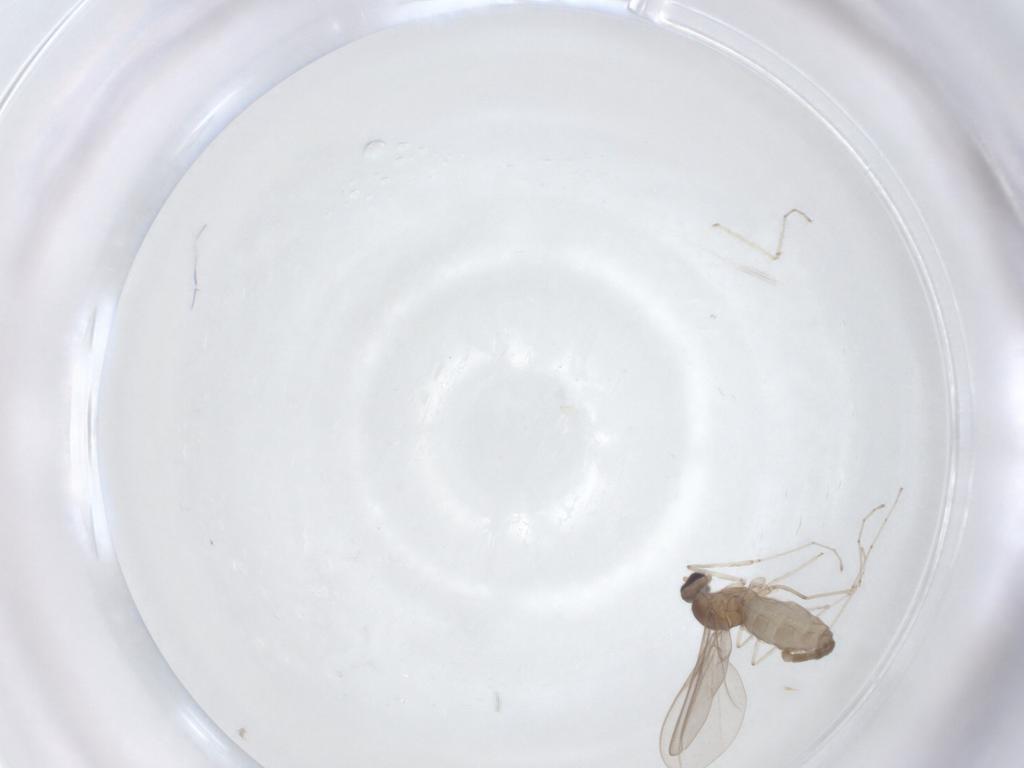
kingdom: Animalia
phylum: Arthropoda
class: Insecta
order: Diptera
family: Cecidomyiidae
